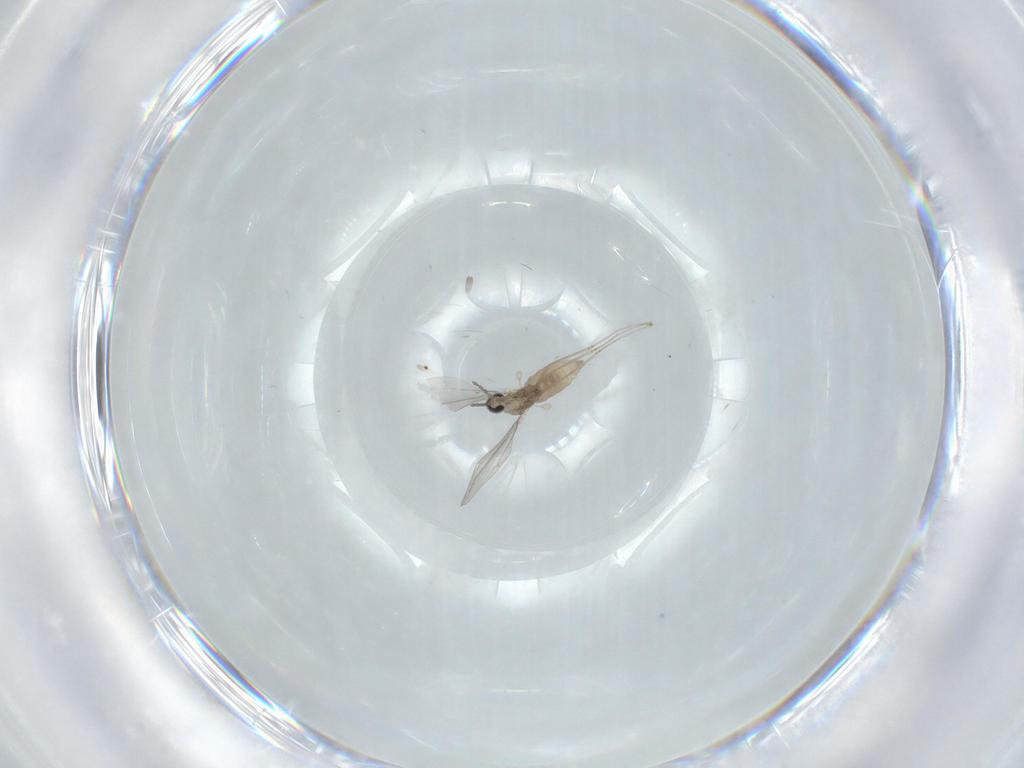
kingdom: Animalia
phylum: Arthropoda
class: Insecta
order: Diptera
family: Cecidomyiidae
